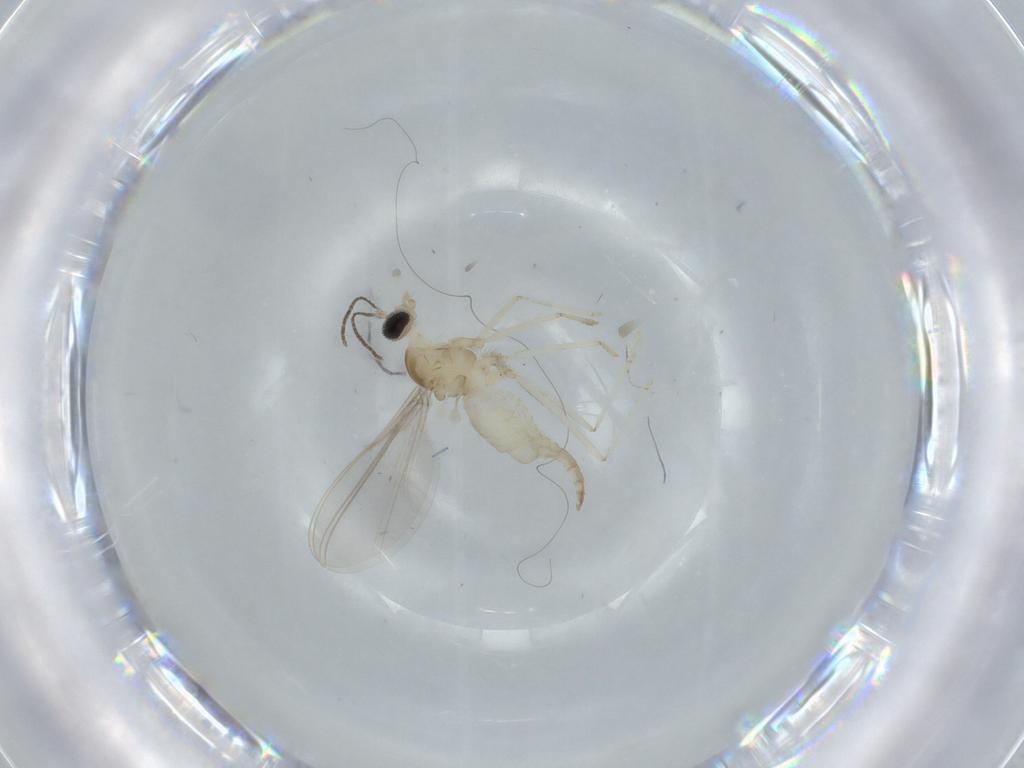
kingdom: Animalia
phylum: Arthropoda
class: Insecta
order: Diptera
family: Cecidomyiidae
